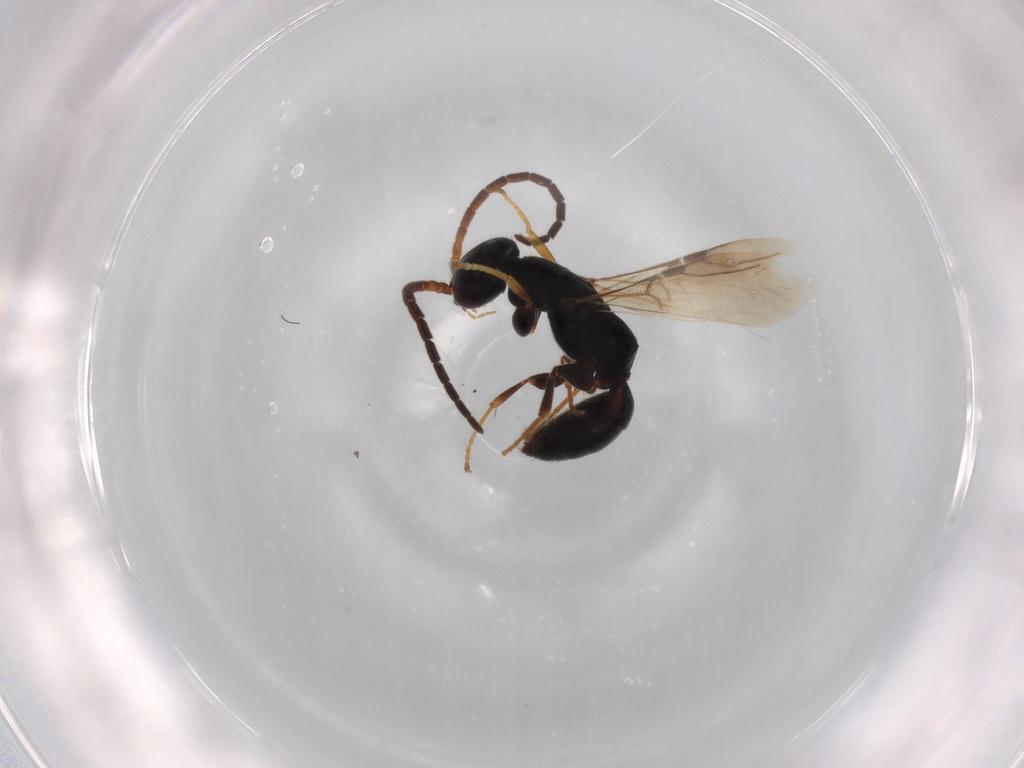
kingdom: Animalia
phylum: Arthropoda
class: Insecta
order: Hymenoptera
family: Bethylidae
